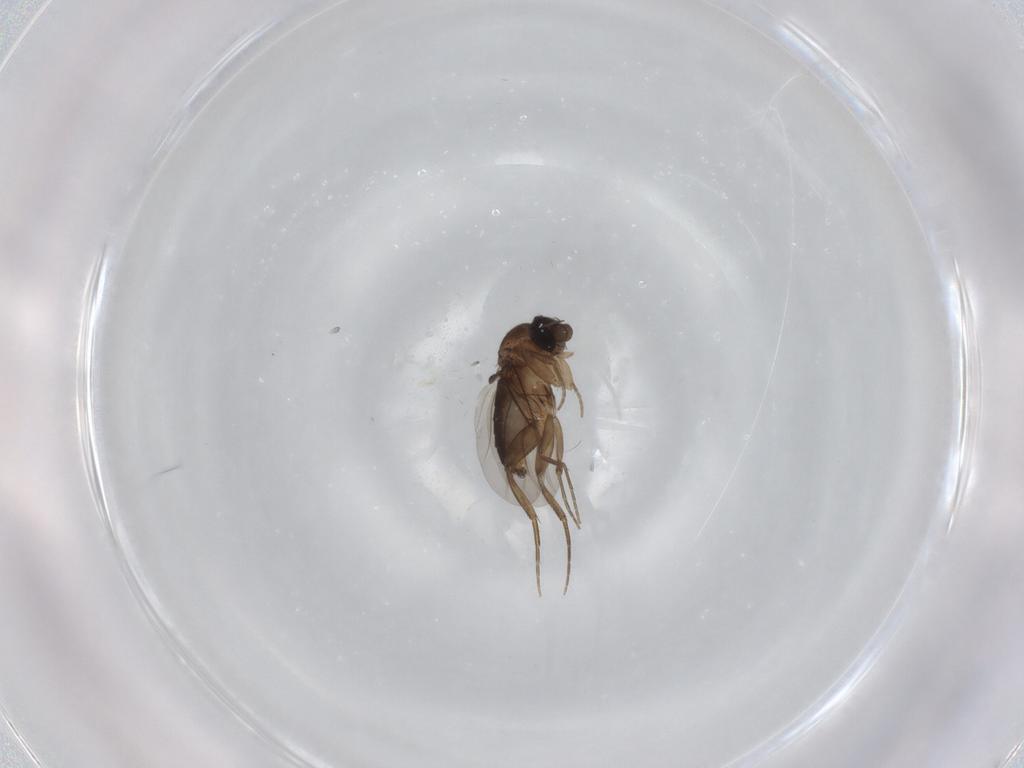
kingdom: Animalia
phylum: Arthropoda
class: Insecta
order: Diptera
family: Phoridae
